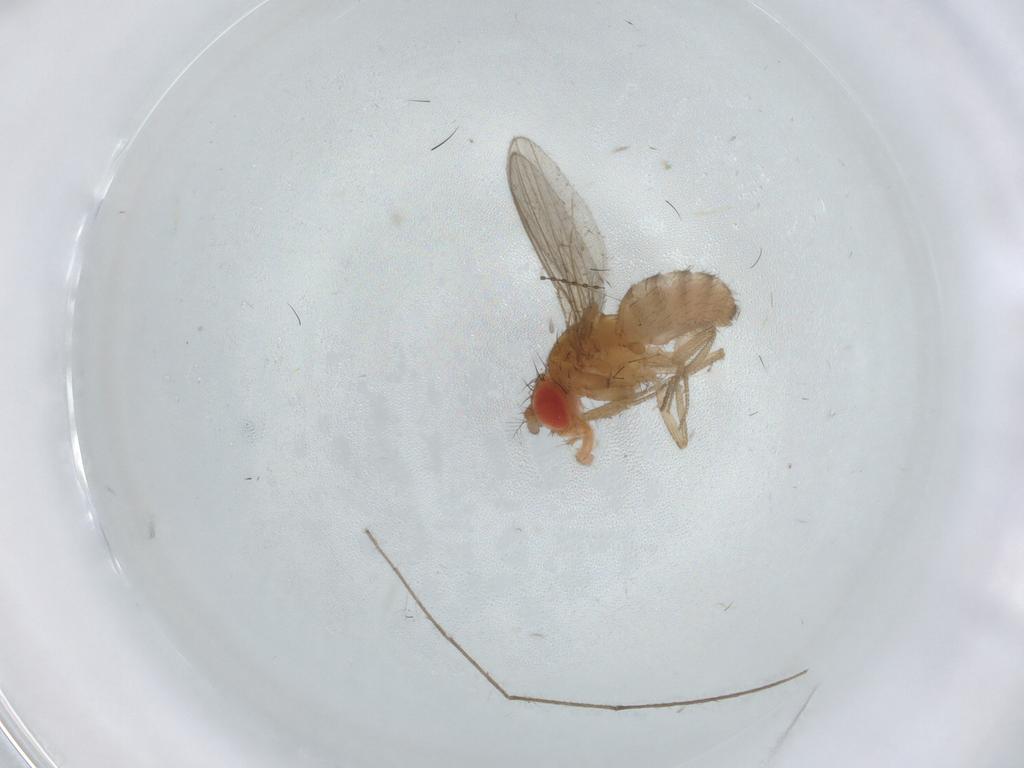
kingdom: Animalia
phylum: Arthropoda
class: Insecta
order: Diptera
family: Drosophilidae
